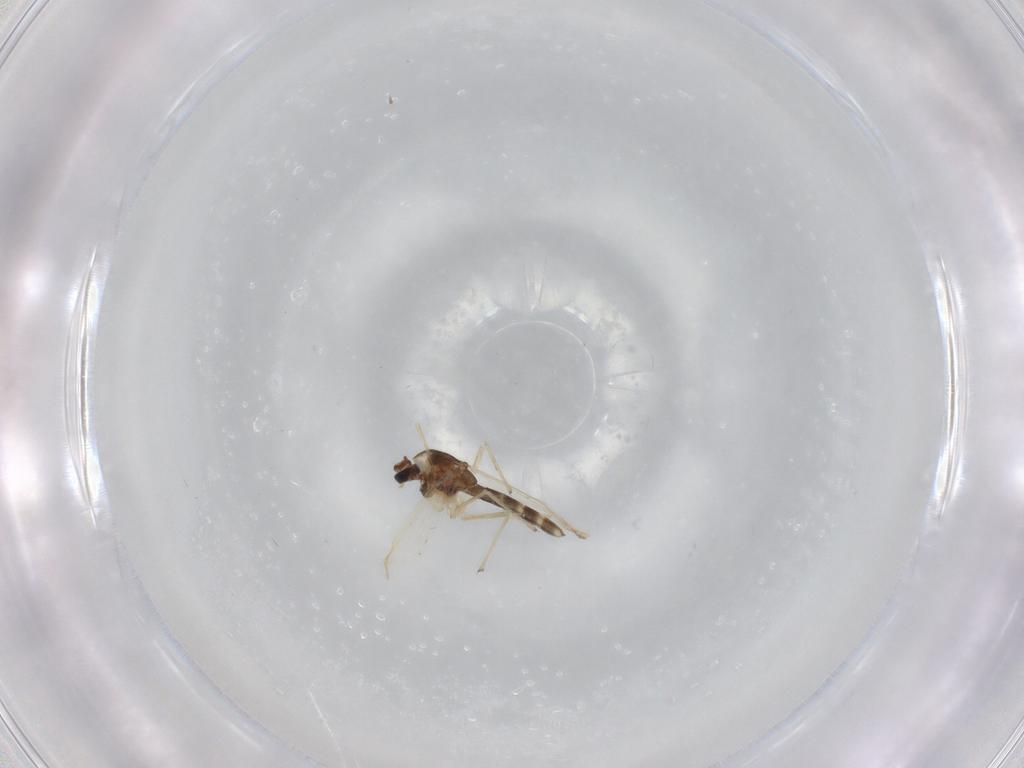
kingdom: Animalia
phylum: Arthropoda
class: Insecta
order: Diptera
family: Chironomidae
